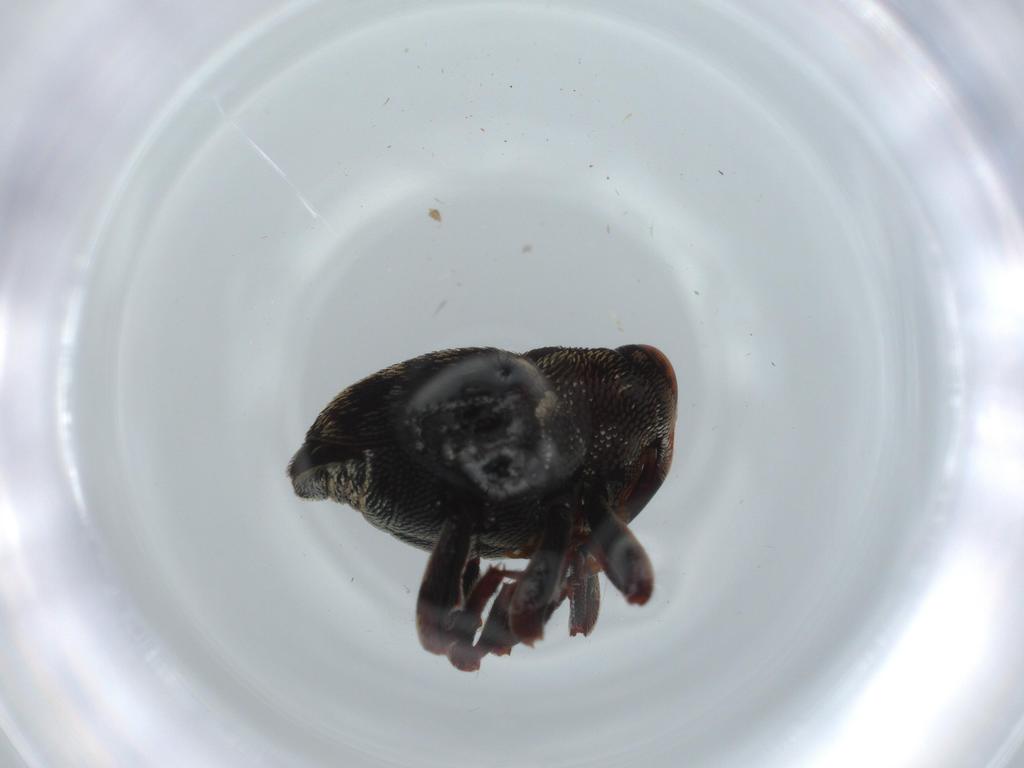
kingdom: Animalia
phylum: Arthropoda
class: Insecta
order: Coleoptera
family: Curculionidae
